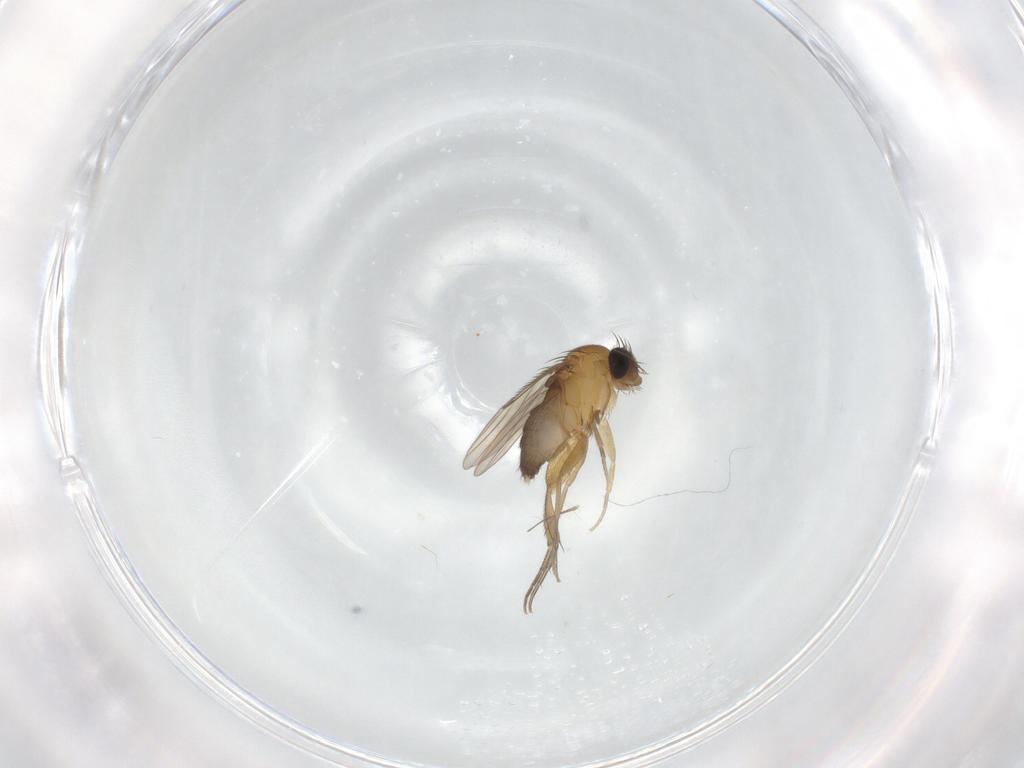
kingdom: Animalia
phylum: Arthropoda
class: Insecta
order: Diptera
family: Phoridae
